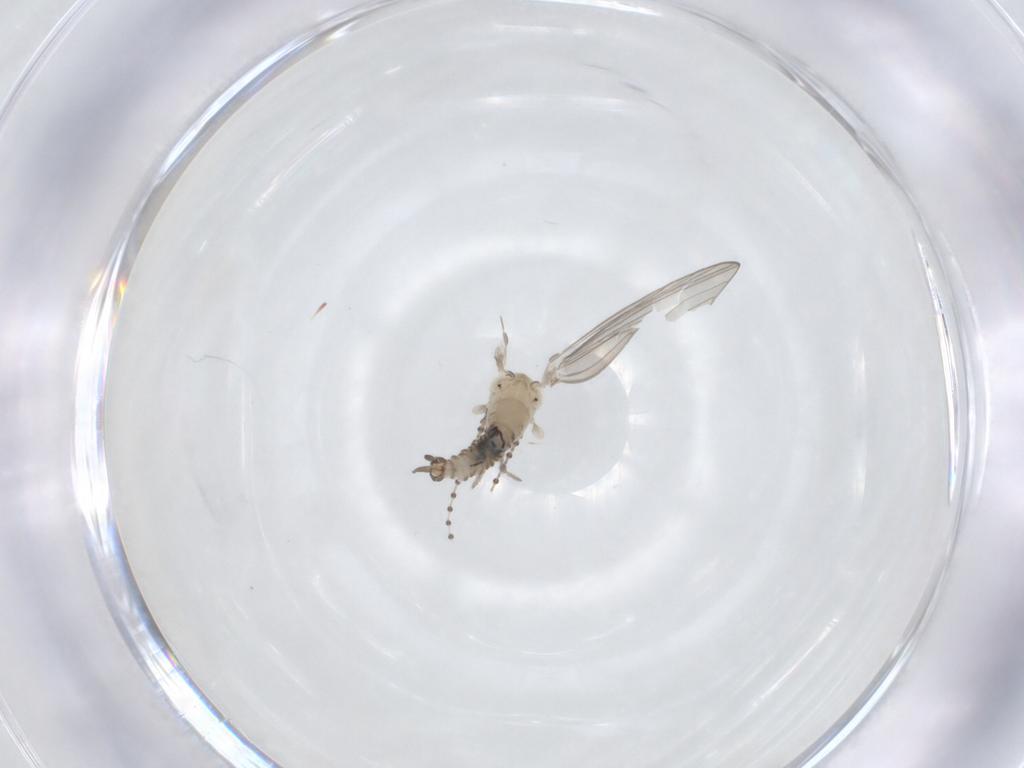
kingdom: Animalia
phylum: Arthropoda
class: Insecta
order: Diptera
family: Psychodidae
